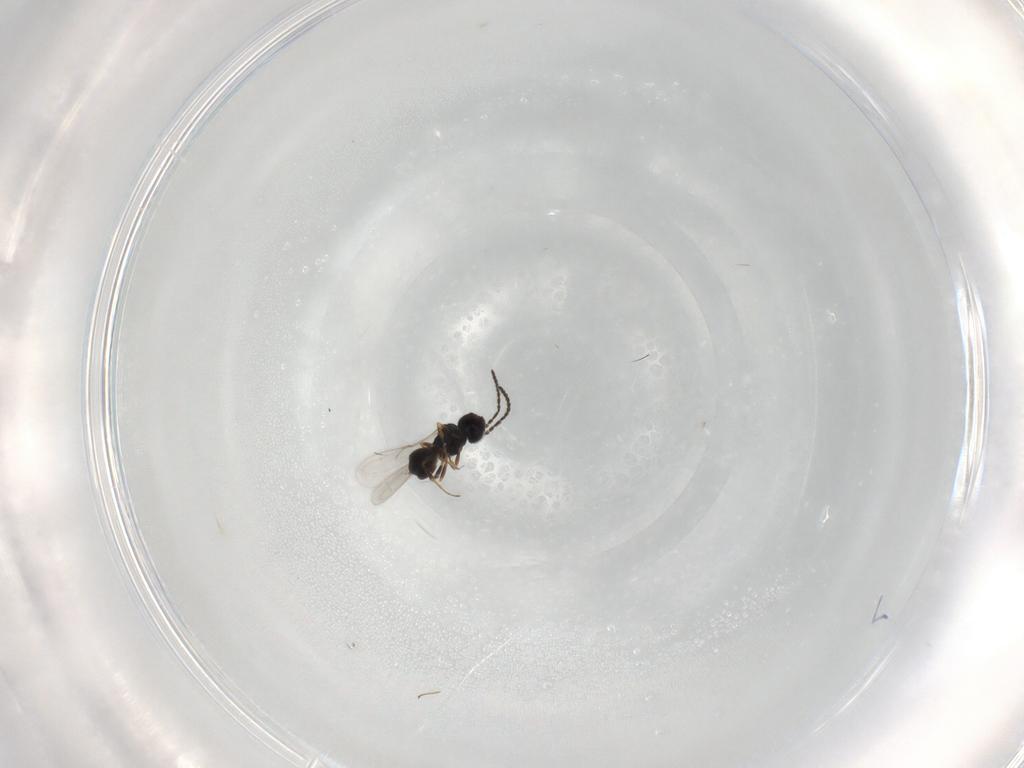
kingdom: Animalia
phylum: Arthropoda
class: Insecta
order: Hymenoptera
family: Scelionidae
